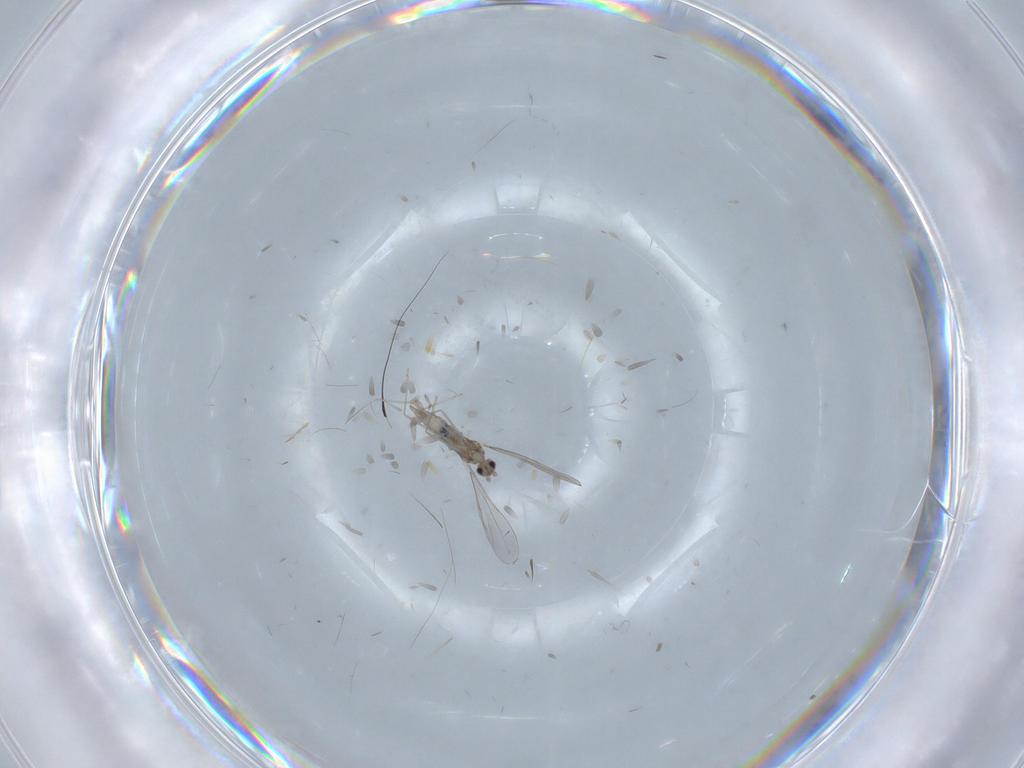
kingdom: Animalia
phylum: Arthropoda
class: Insecta
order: Diptera
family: Cecidomyiidae
